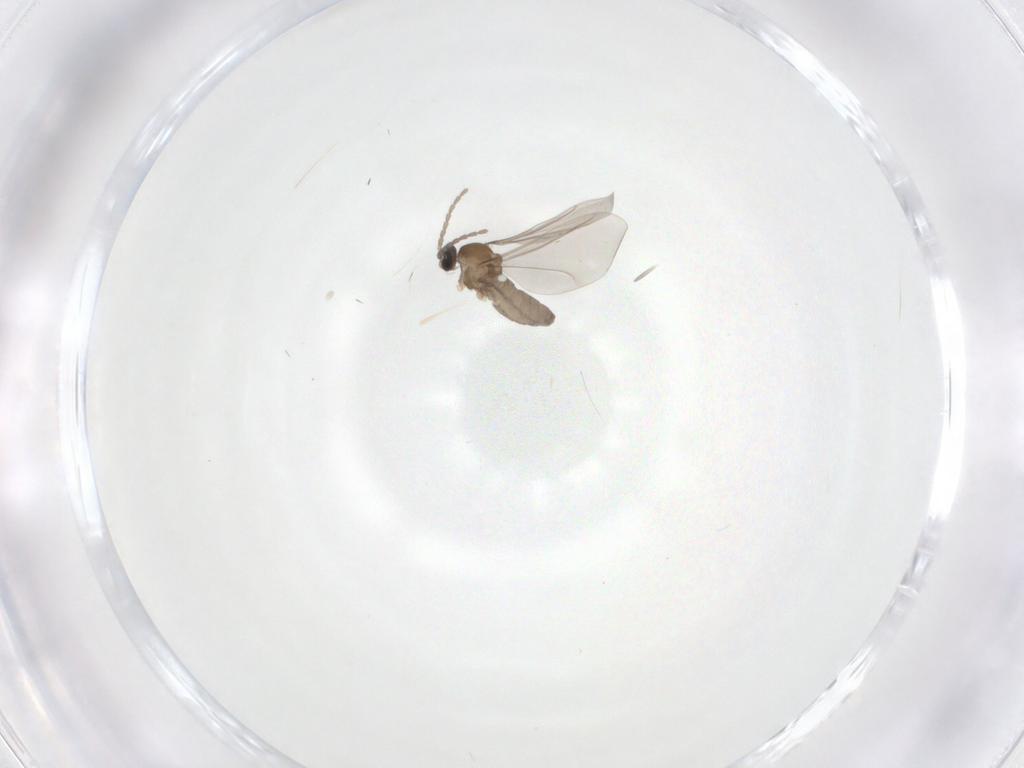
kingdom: Animalia
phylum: Arthropoda
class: Insecta
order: Diptera
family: Cecidomyiidae
